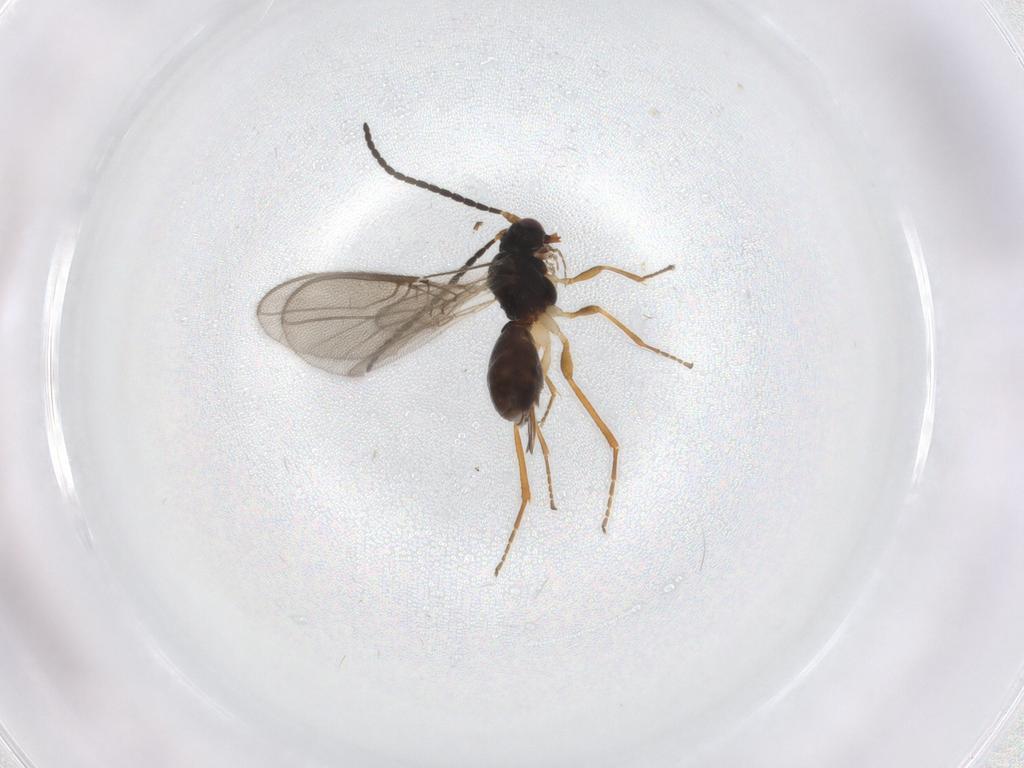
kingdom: Animalia
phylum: Arthropoda
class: Insecta
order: Hymenoptera
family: Braconidae
